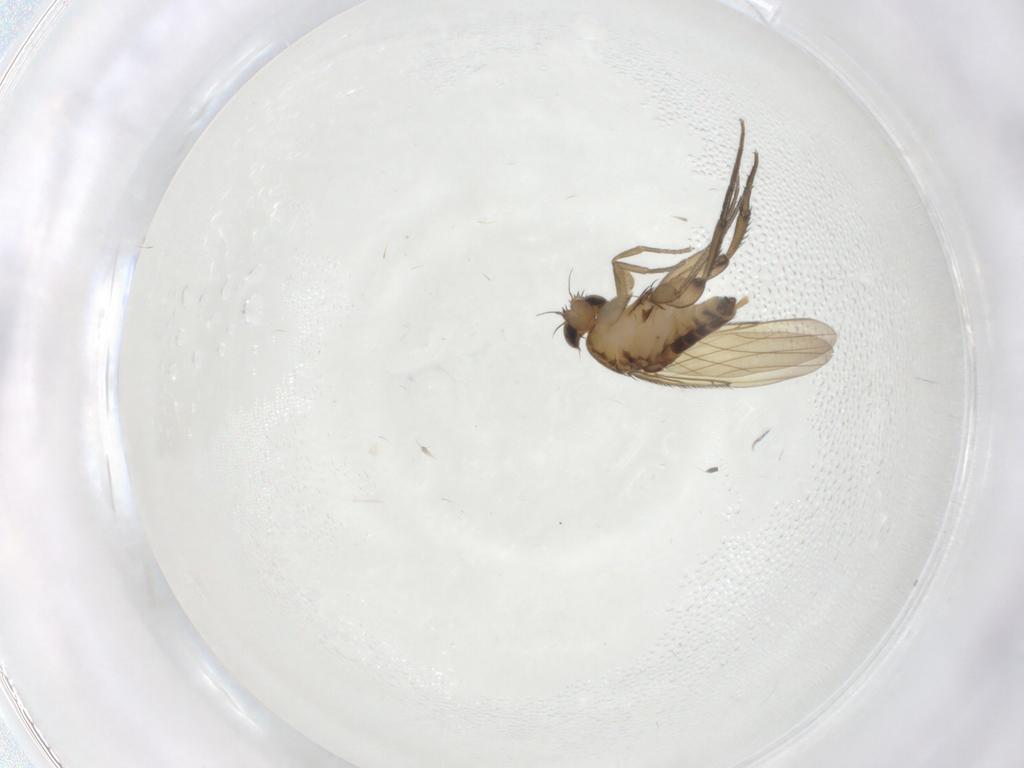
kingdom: Animalia
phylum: Arthropoda
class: Insecta
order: Diptera
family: Phoridae
